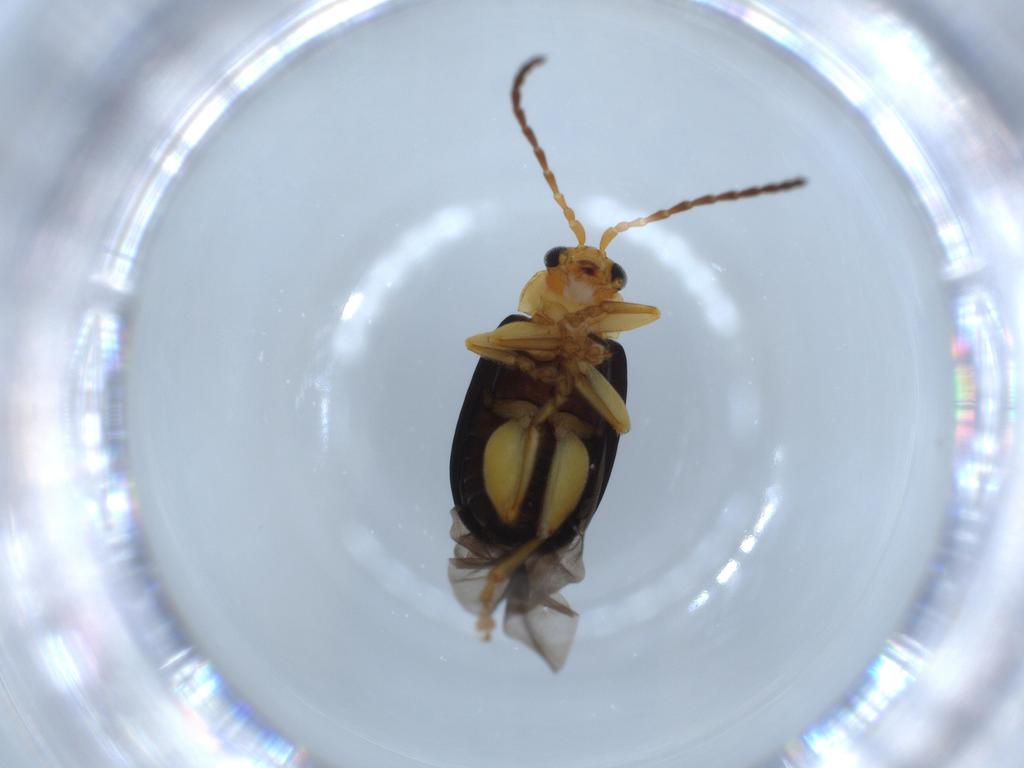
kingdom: Animalia
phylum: Arthropoda
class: Insecta
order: Coleoptera
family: Chrysomelidae
